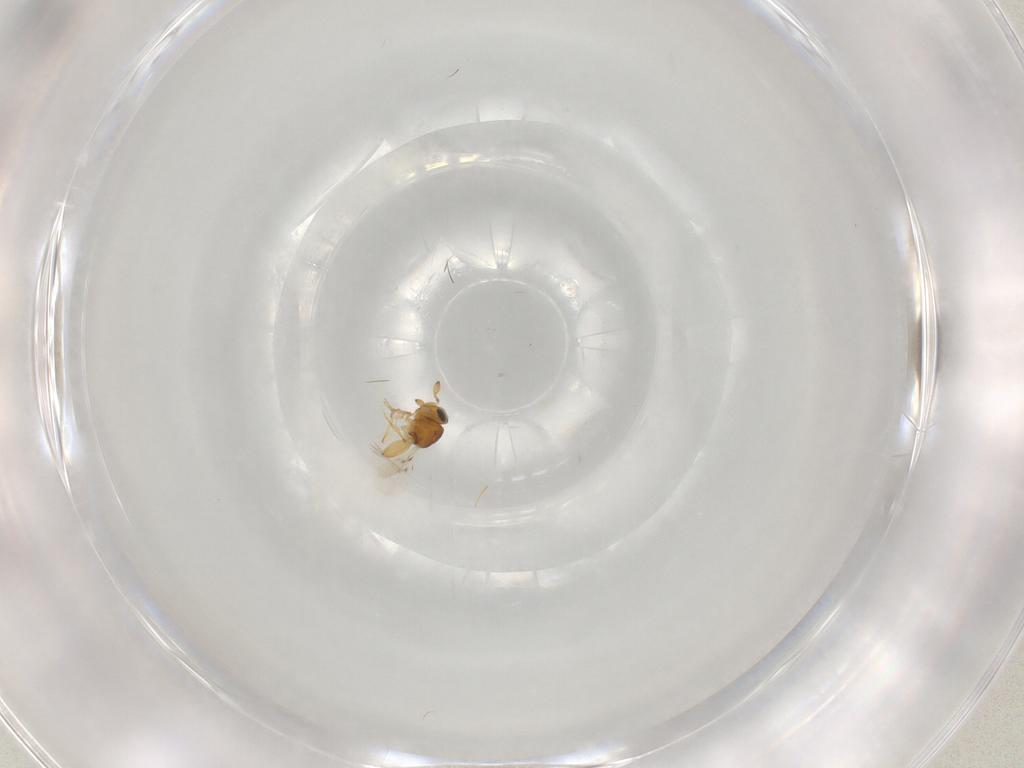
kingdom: Animalia
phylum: Arthropoda
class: Insecta
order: Hymenoptera
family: Scelionidae
